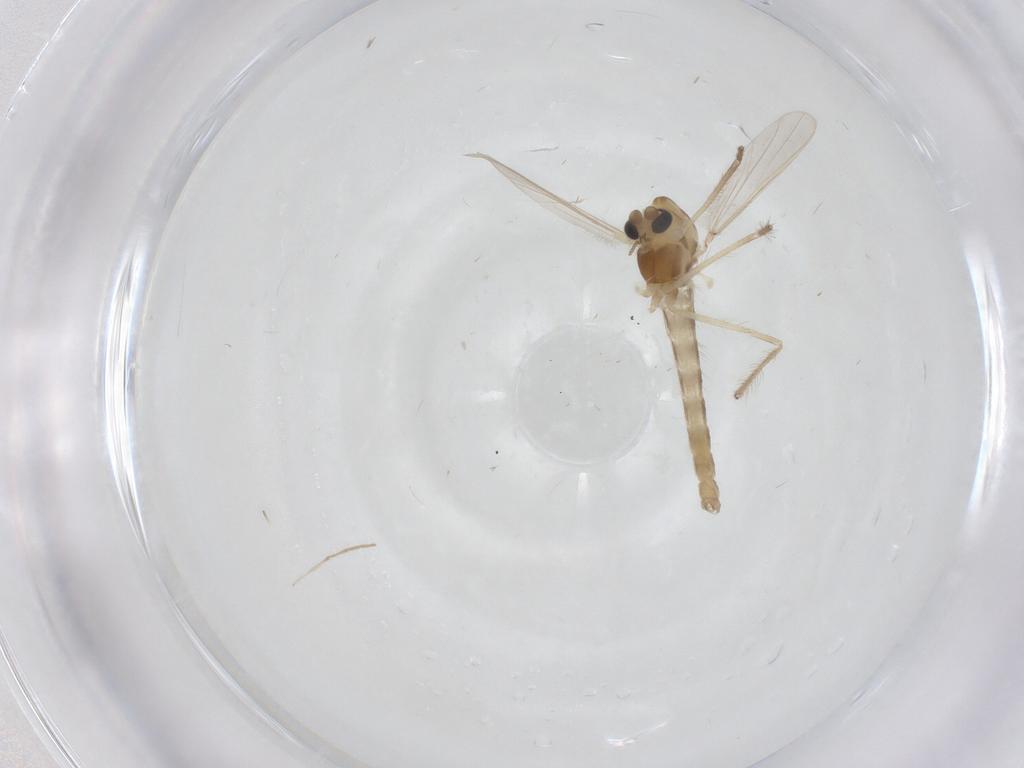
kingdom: Animalia
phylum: Arthropoda
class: Insecta
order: Diptera
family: Chironomidae
